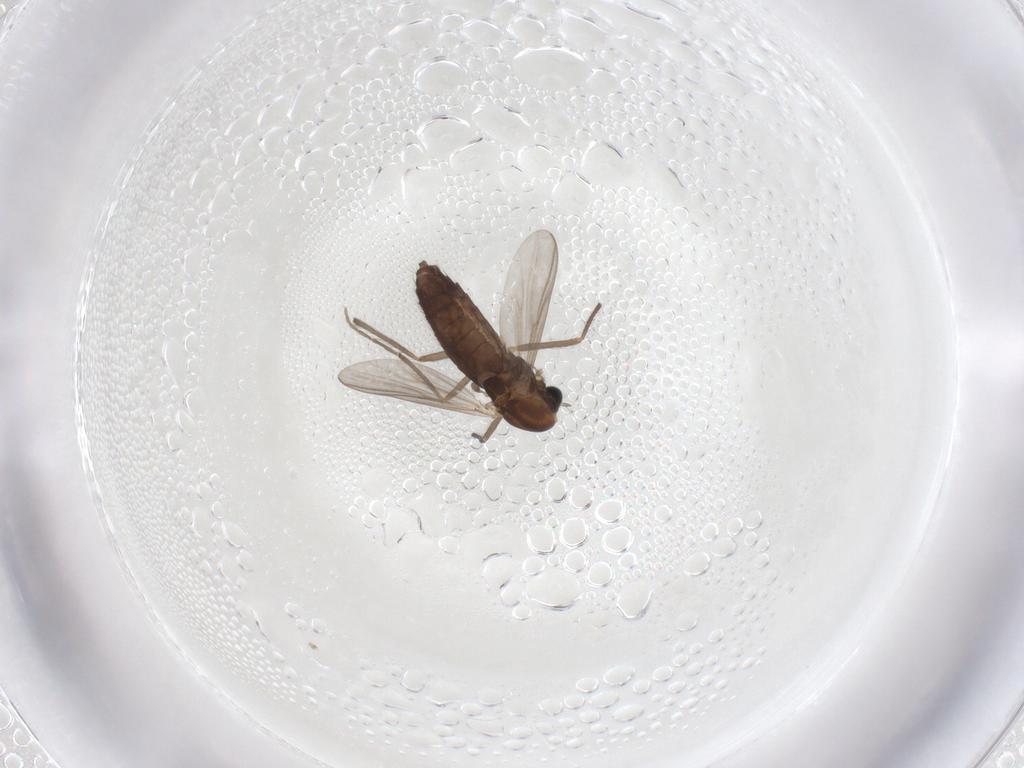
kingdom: Animalia
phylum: Arthropoda
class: Insecta
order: Diptera
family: Chironomidae
